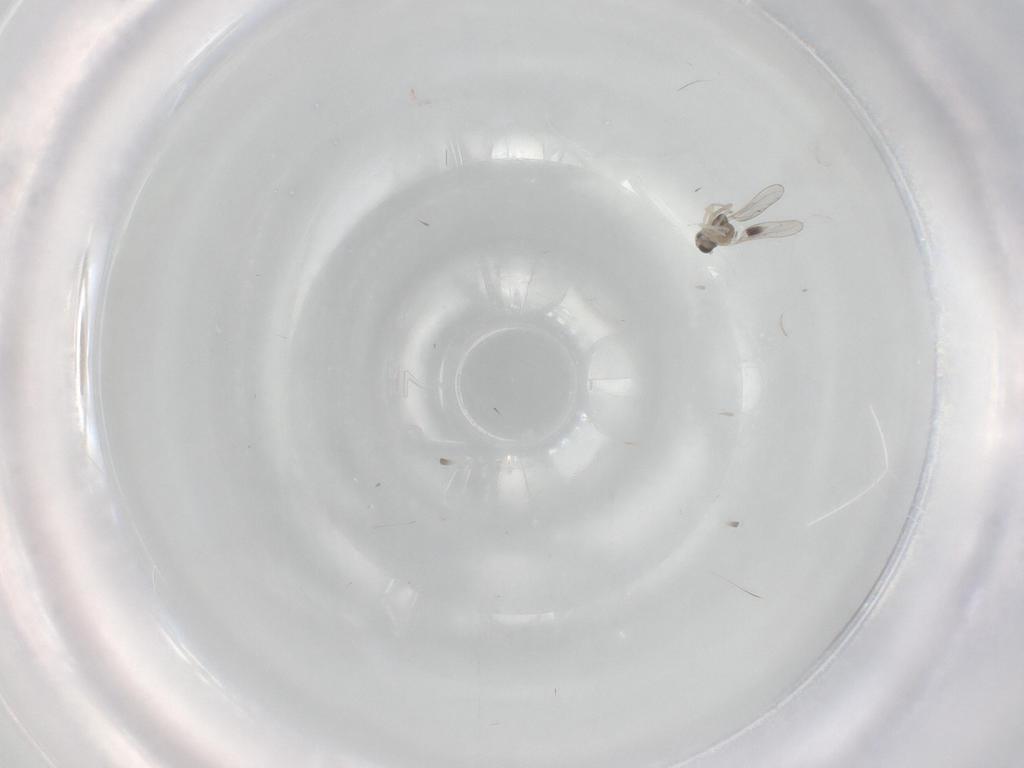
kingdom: Animalia
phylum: Arthropoda
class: Insecta
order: Diptera
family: Cecidomyiidae
